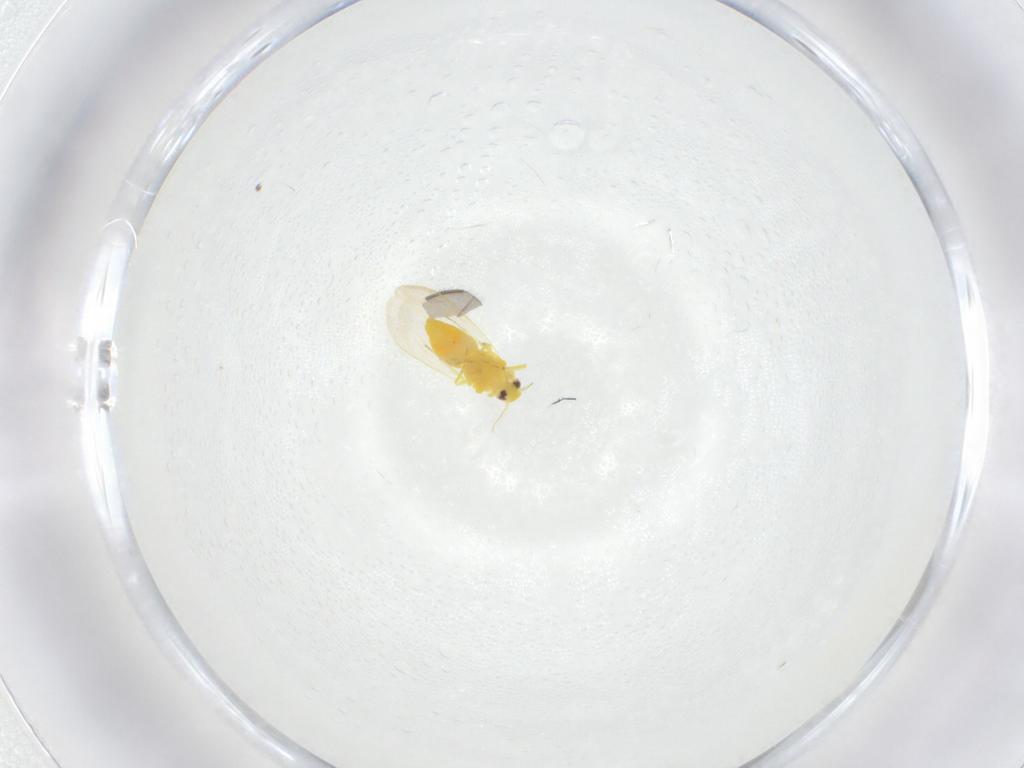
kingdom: Animalia
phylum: Arthropoda
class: Insecta
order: Hemiptera
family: Aleyrodidae
